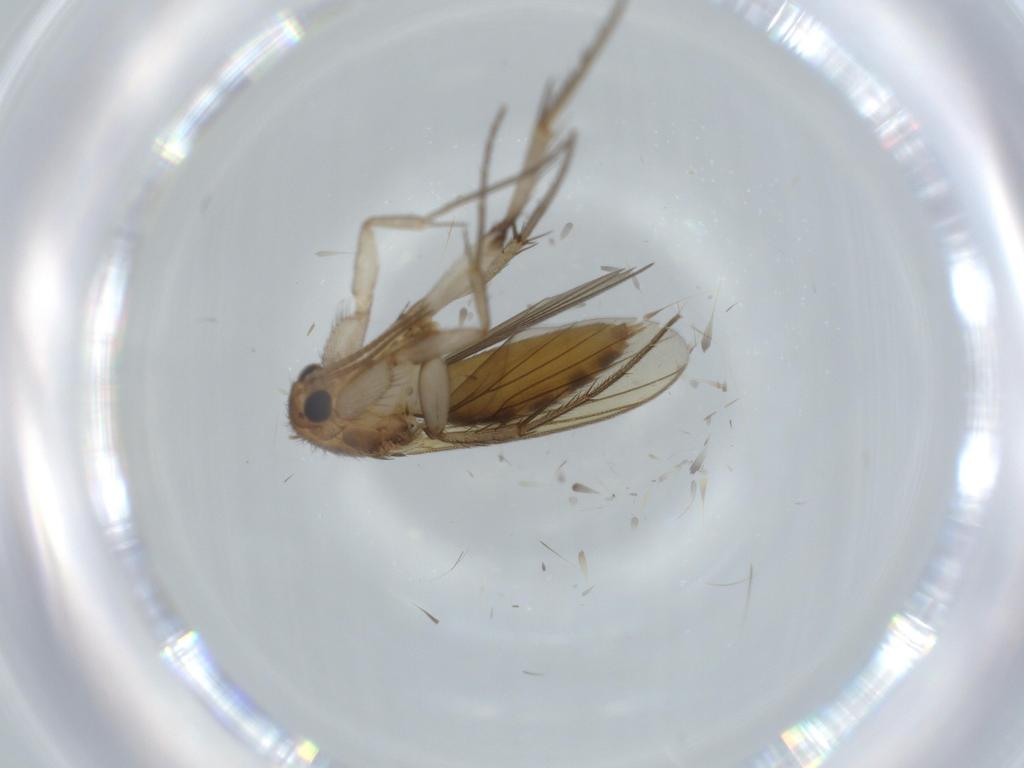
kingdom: Animalia
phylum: Arthropoda
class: Insecta
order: Diptera
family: Cecidomyiidae
